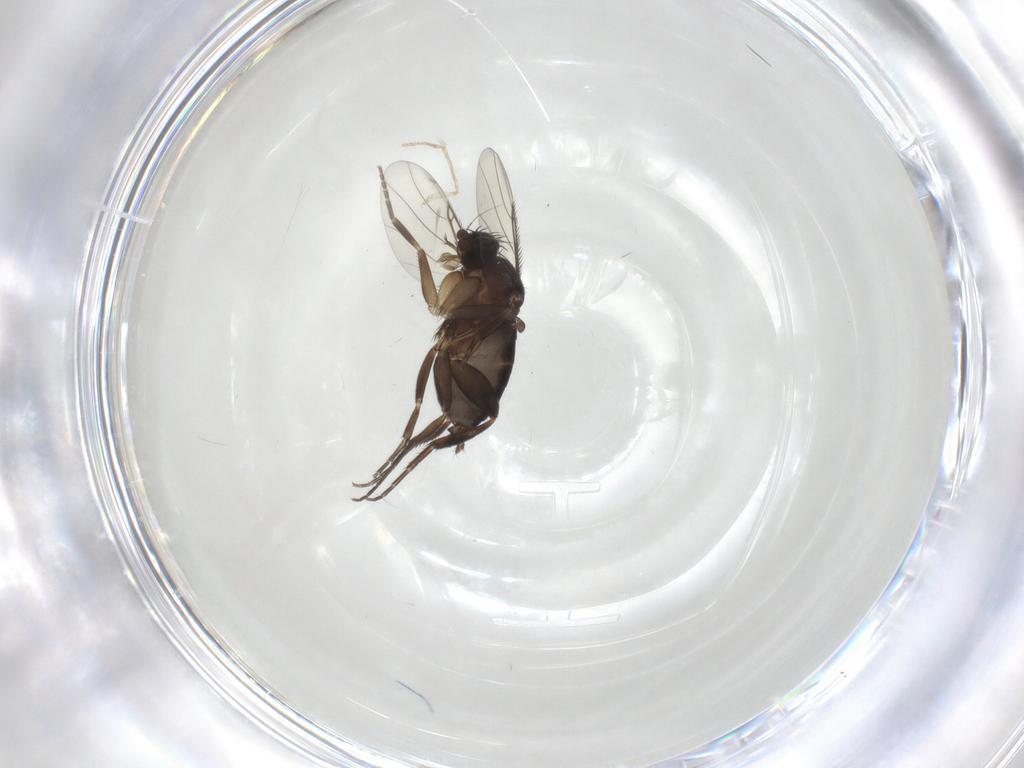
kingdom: Animalia
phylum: Arthropoda
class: Insecta
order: Diptera
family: Phoridae
